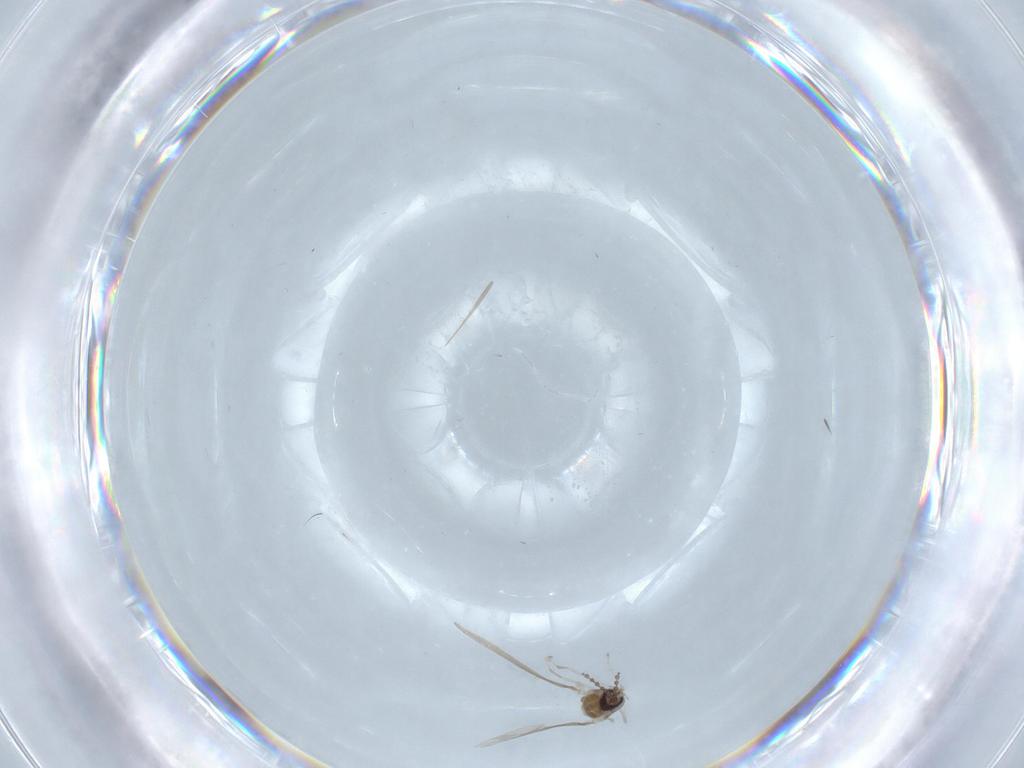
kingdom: Animalia
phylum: Arthropoda
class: Insecta
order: Diptera
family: Cecidomyiidae
